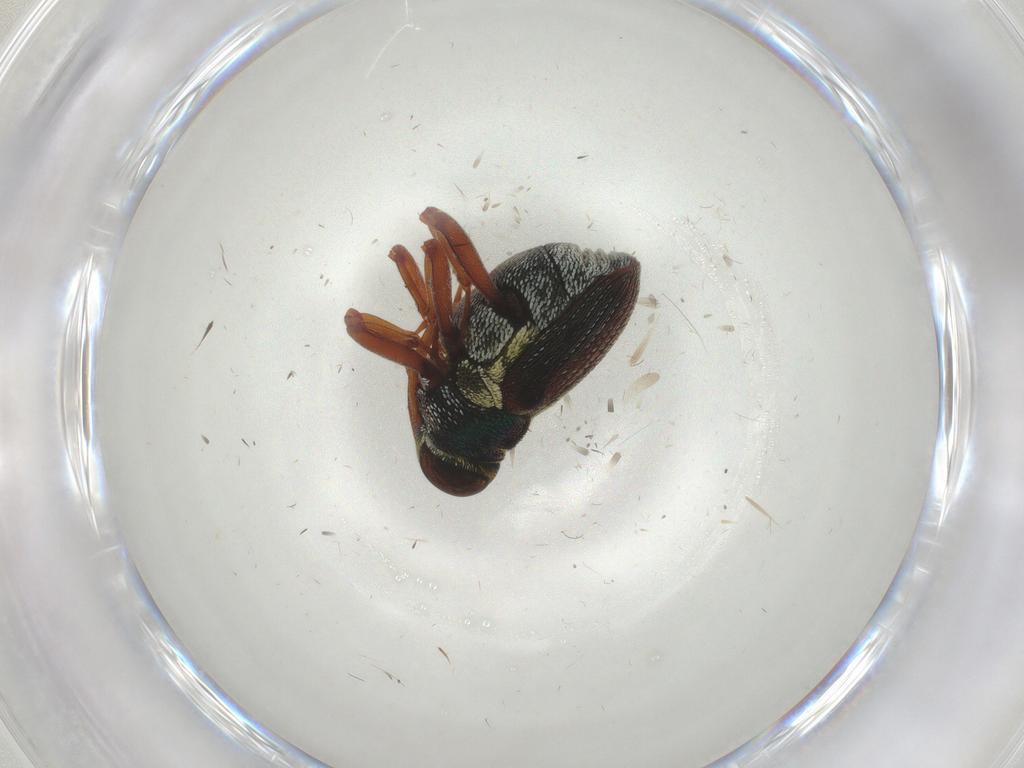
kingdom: Animalia
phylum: Arthropoda
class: Insecta
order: Coleoptera
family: Curculionidae
